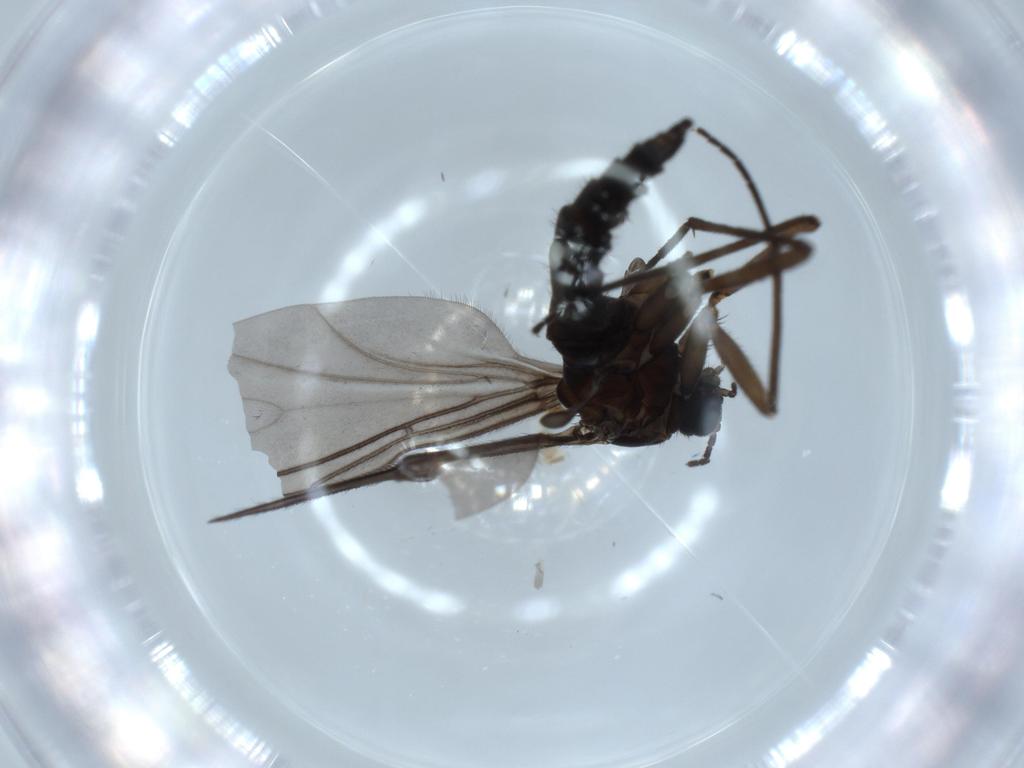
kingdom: Animalia
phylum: Arthropoda
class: Insecta
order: Diptera
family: Sciaridae
